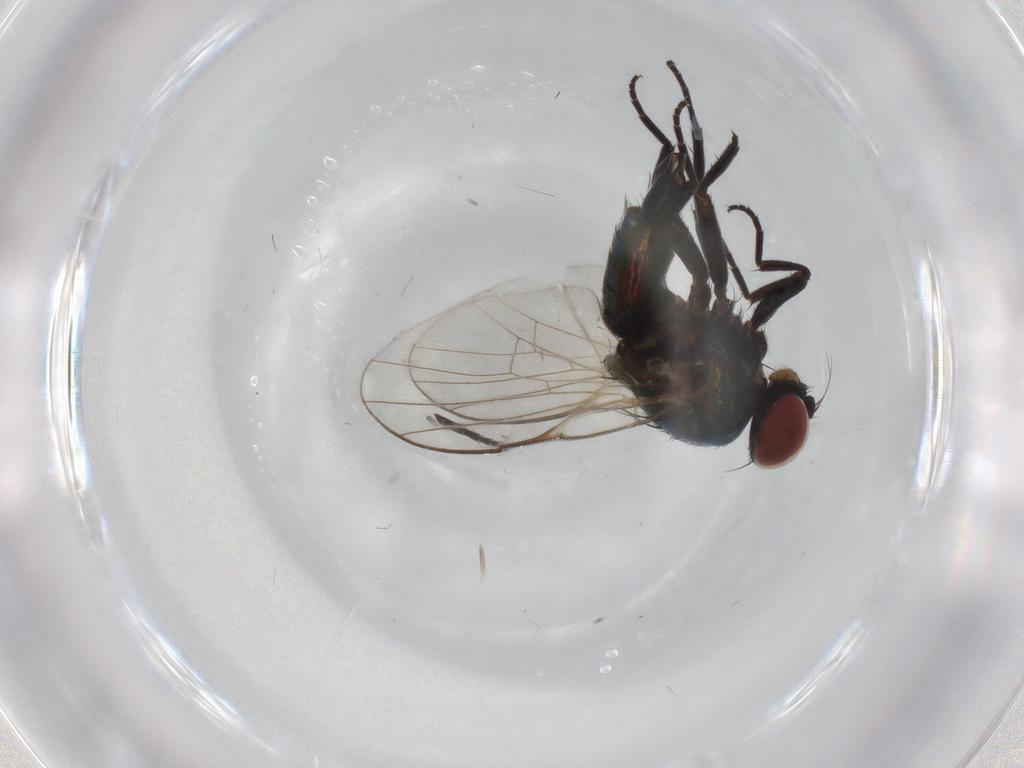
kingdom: Animalia
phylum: Arthropoda
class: Insecta
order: Diptera
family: Agromyzidae
